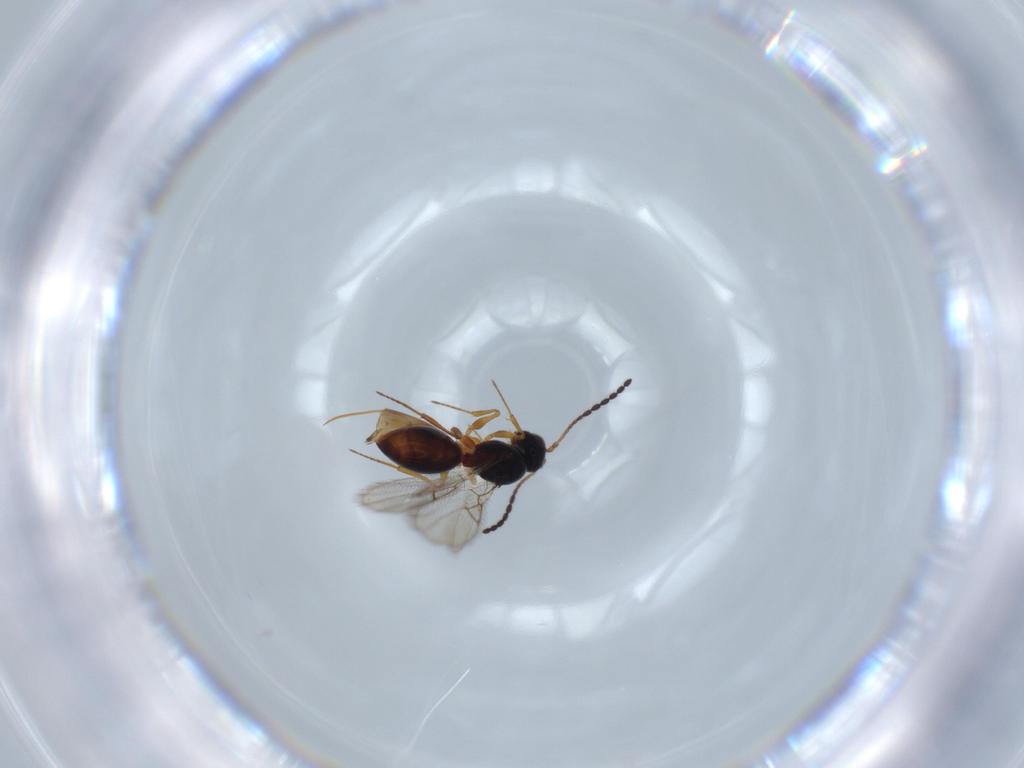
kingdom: Animalia
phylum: Arthropoda
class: Insecta
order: Hymenoptera
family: Figitidae
